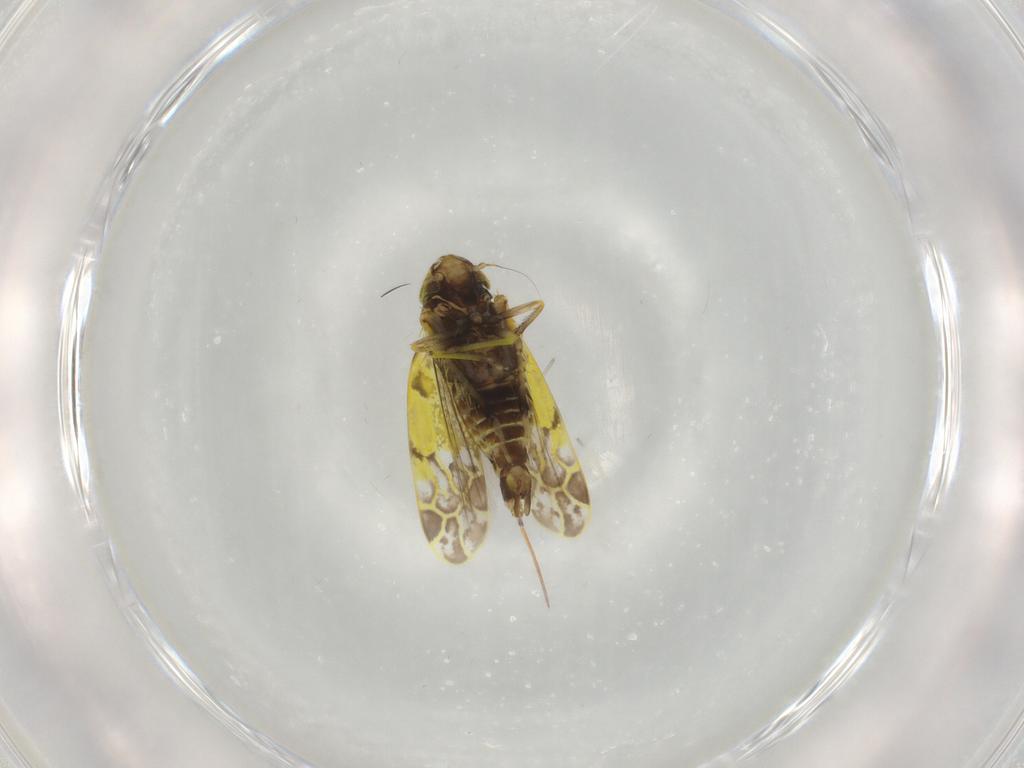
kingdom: Animalia
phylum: Arthropoda
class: Insecta
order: Hemiptera
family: Cicadellidae
